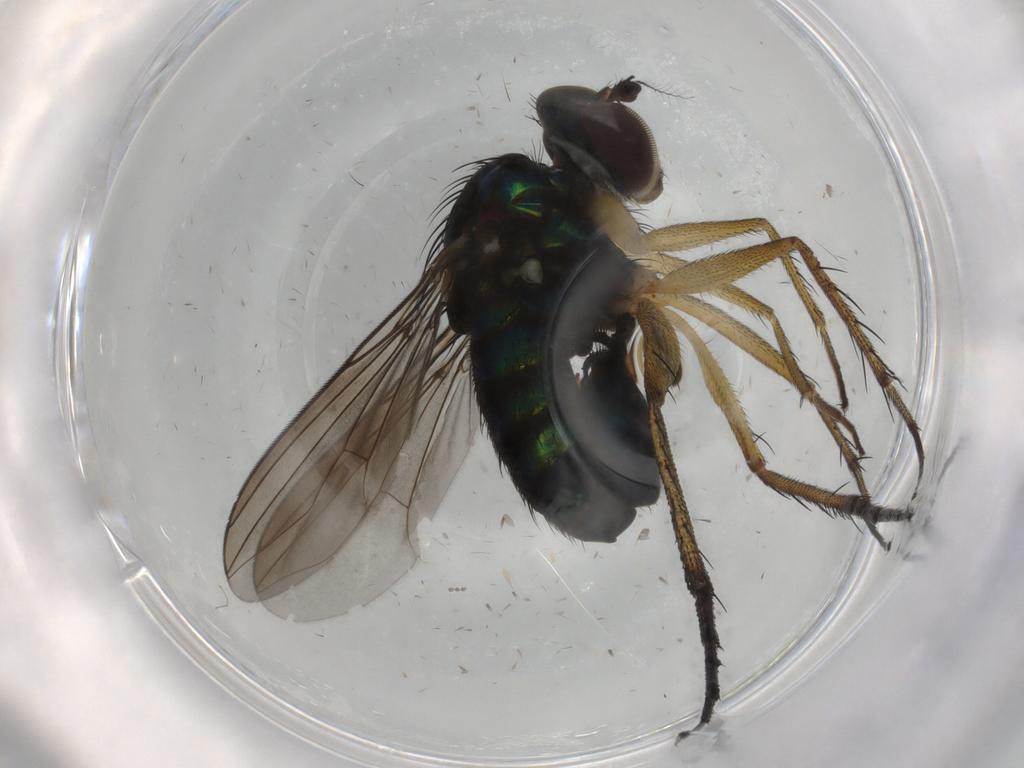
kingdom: Animalia
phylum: Arthropoda
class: Insecta
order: Diptera
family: Dolichopodidae
